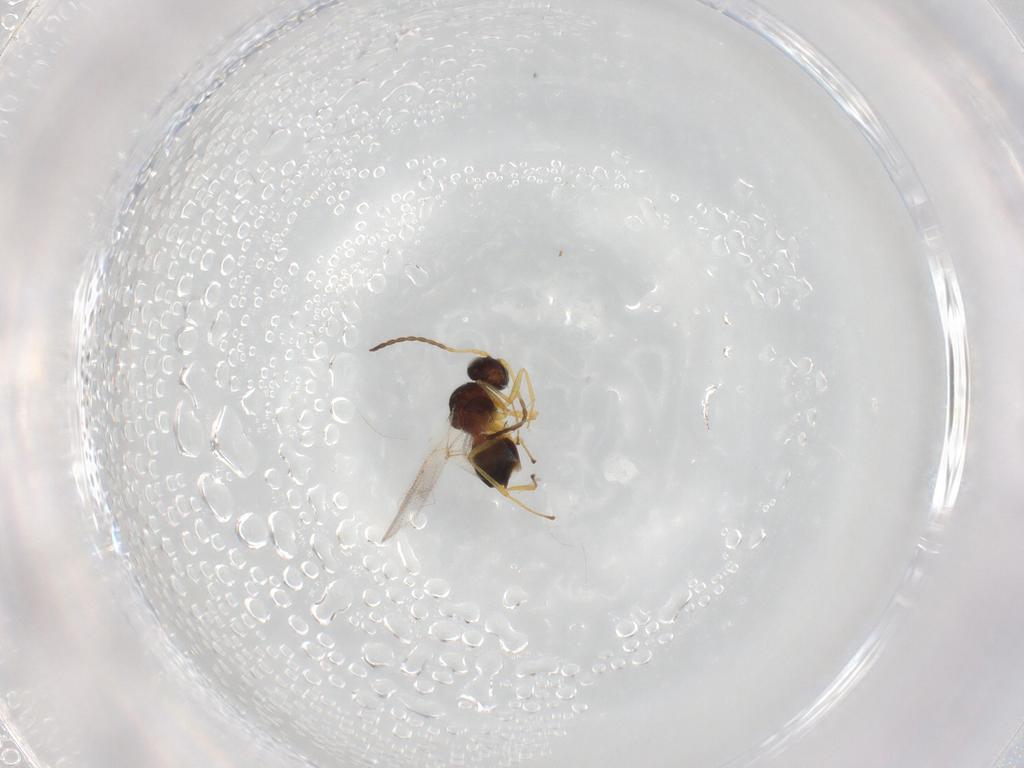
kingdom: Animalia
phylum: Arthropoda
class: Insecta
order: Hymenoptera
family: Figitidae
